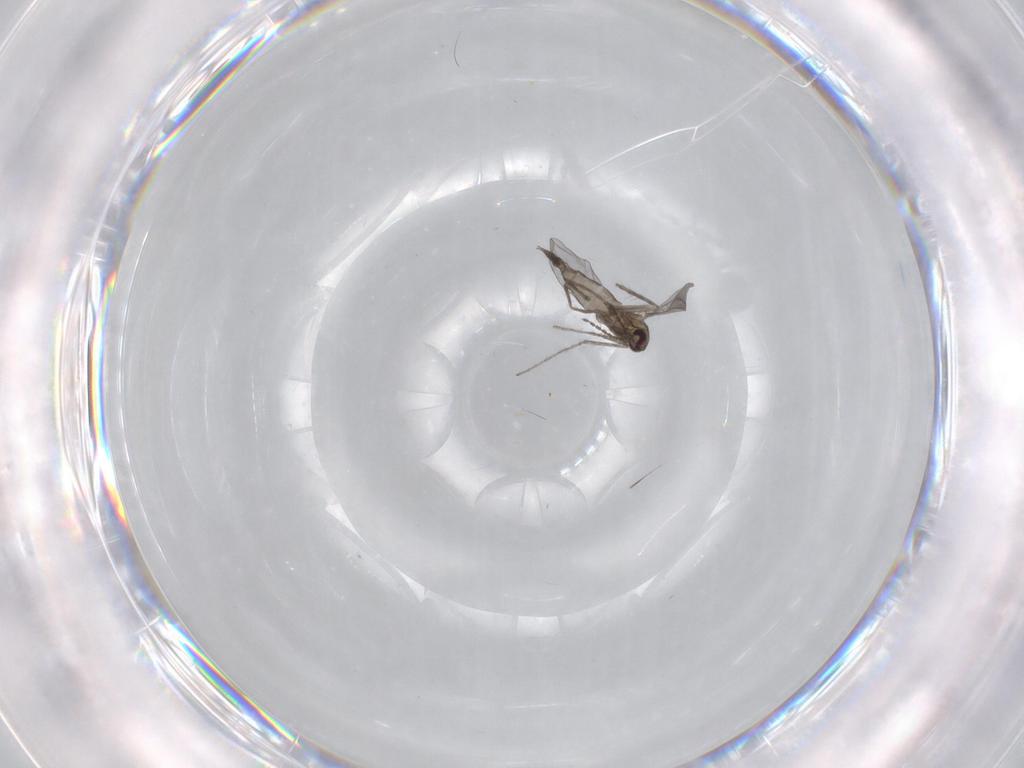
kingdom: Animalia
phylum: Arthropoda
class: Insecta
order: Diptera
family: Cecidomyiidae
